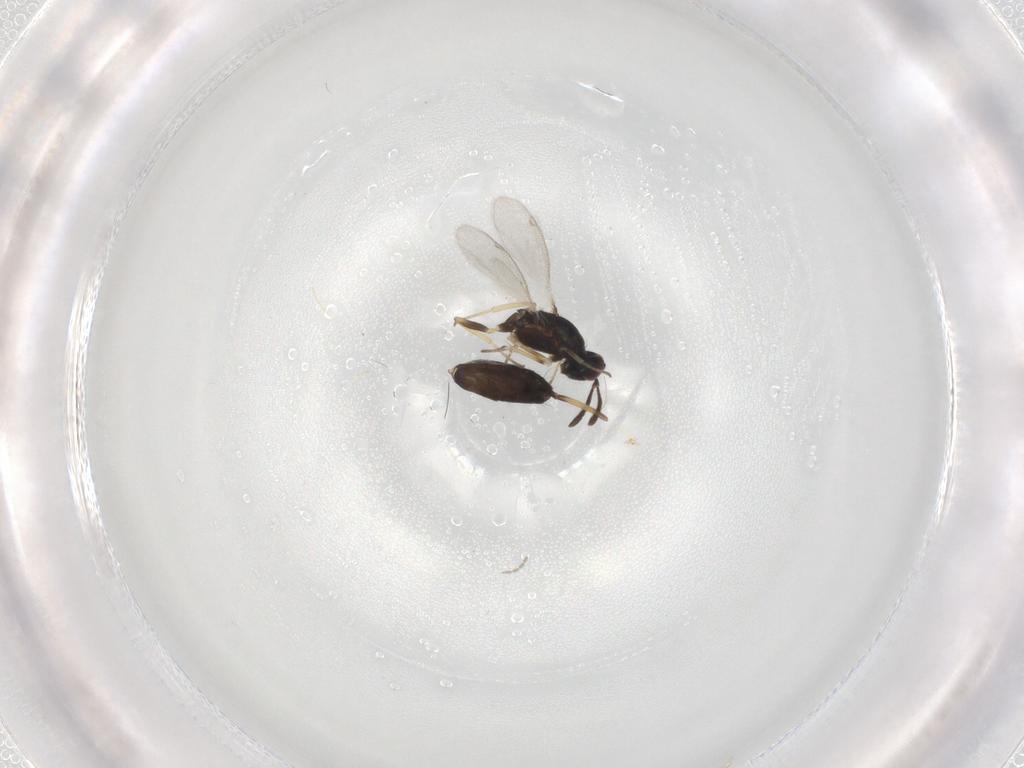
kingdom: Animalia
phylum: Arthropoda
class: Insecta
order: Hymenoptera
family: Eupelmidae
